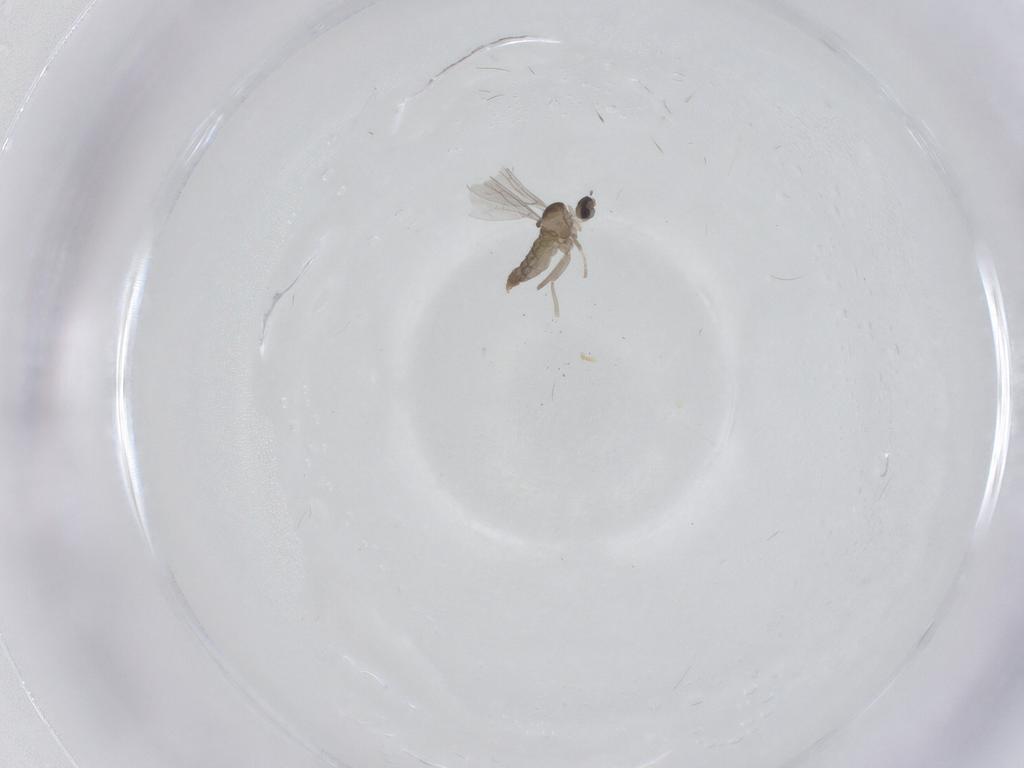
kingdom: Animalia
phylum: Arthropoda
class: Insecta
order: Diptera
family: Cecidomyiidae
